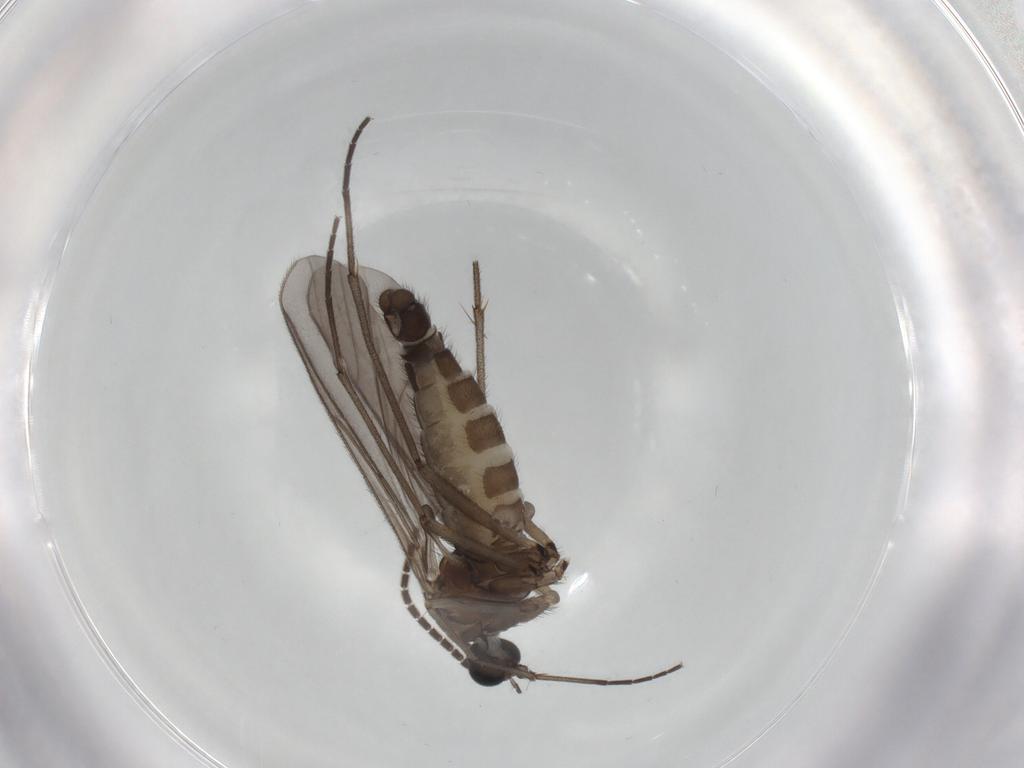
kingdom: Animalia
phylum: Arthropoda
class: Insecta
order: Diptera
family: Sciaridae
